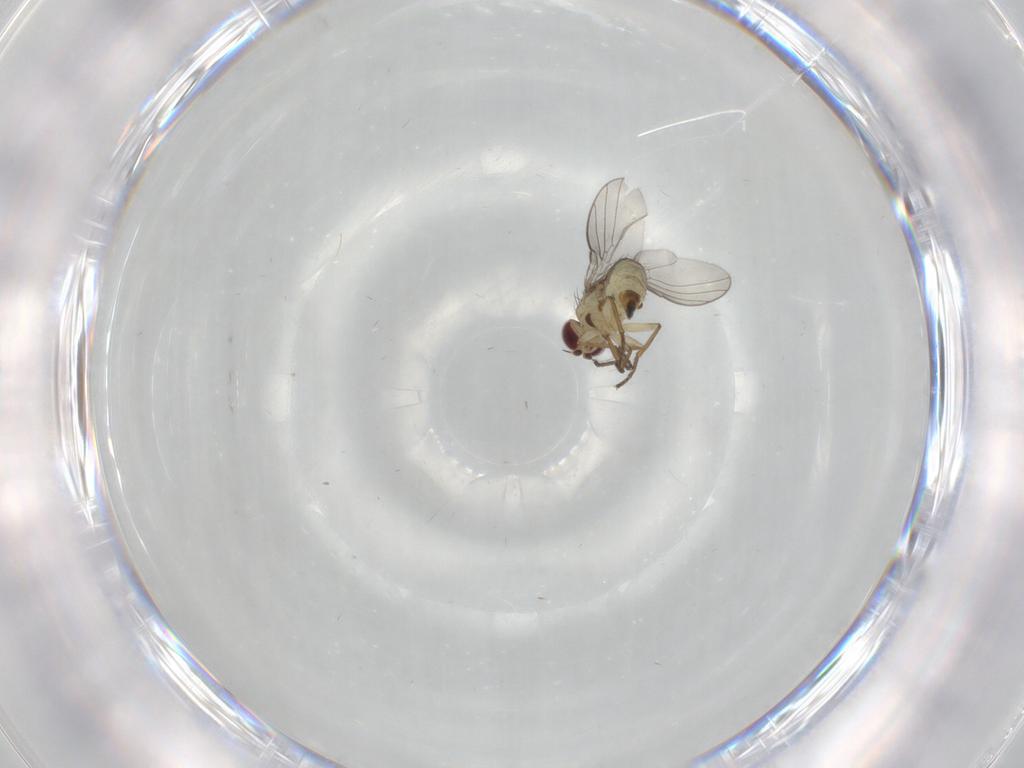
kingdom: Animalia
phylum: Arthropoda
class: Insecta
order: Diptera
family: Agromyzidae
